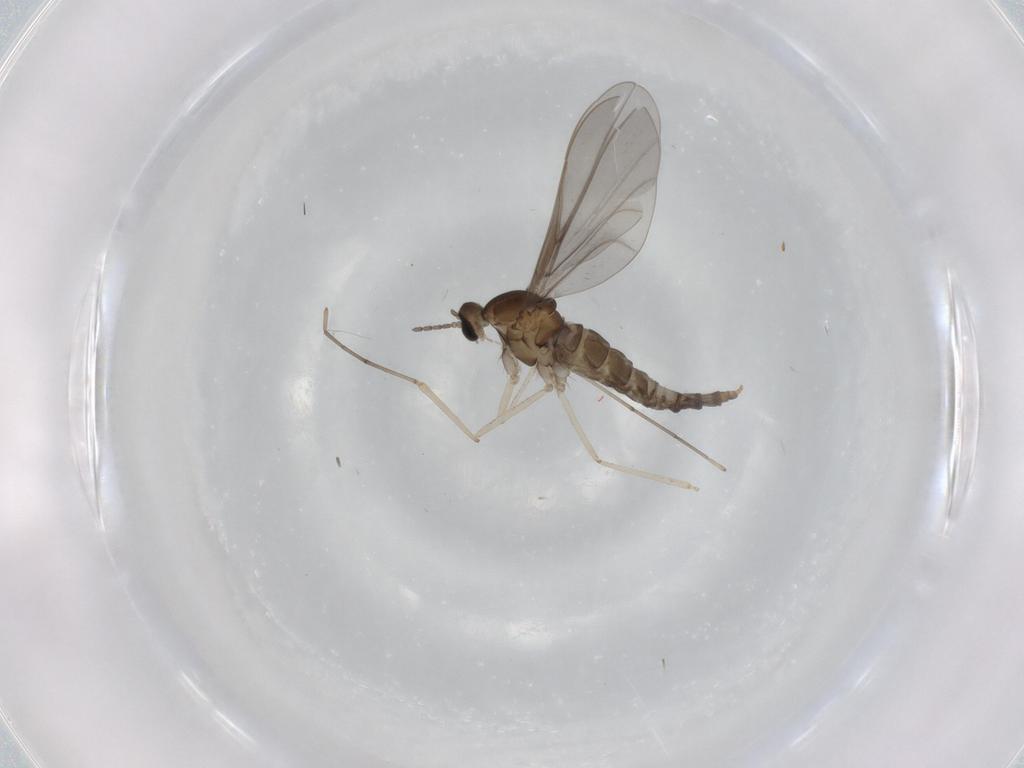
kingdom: Animalia
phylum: Arthropoda
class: Insecta
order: Diptera
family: Cecidomyiidae
